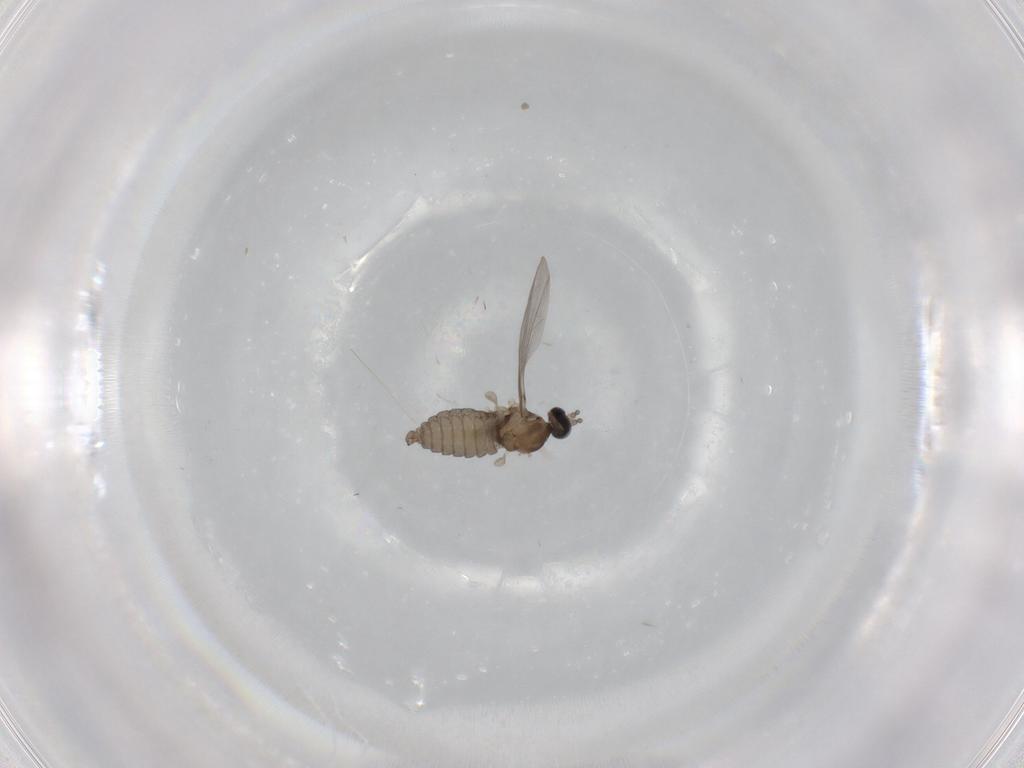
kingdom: Animalia
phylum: Arthropoda
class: Insecta
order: Diptera
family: Cecidomyiidae
